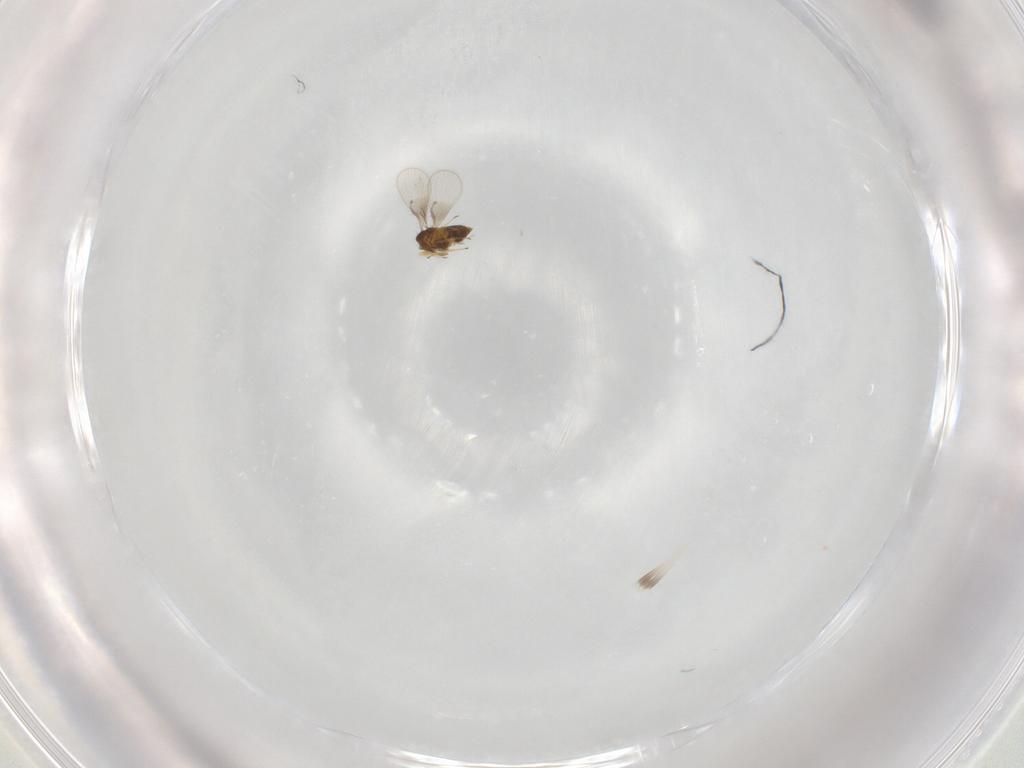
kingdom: Animalia
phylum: Arthropoda
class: Insecta
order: Hymenoptera
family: Trichogrammatidae
